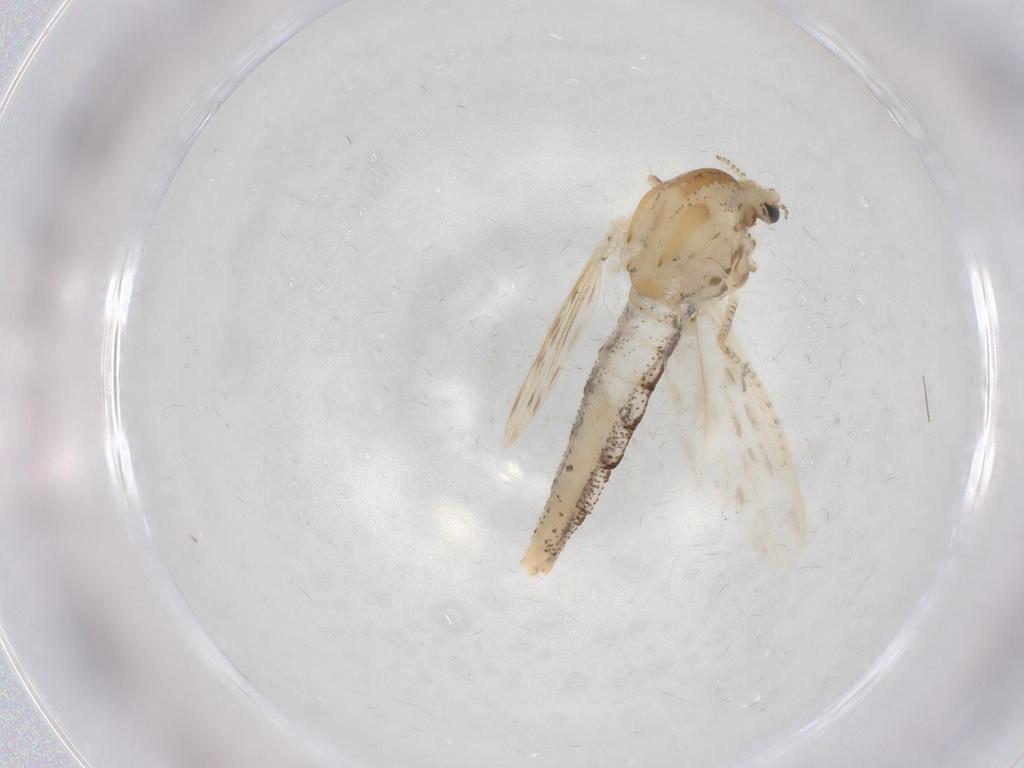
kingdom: Animalia
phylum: Arthropoda
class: Insecta
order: Diptera
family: Chaoboridae
